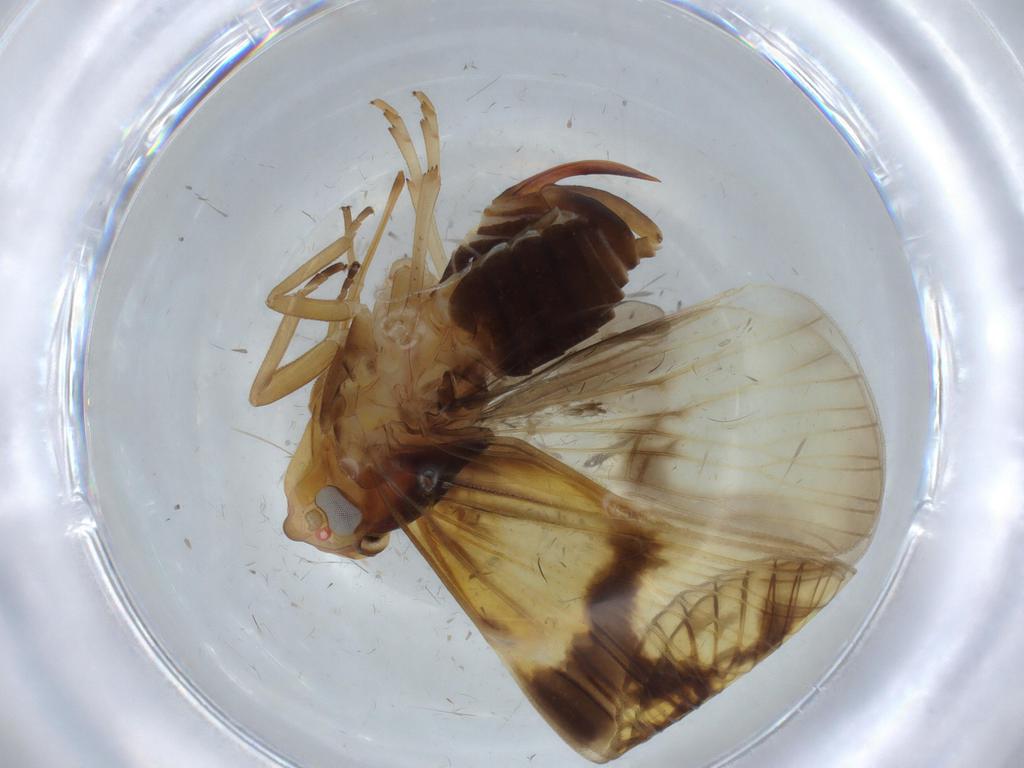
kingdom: Animalia
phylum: Arthropoda
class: Insecta
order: Hemiptera
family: Cixiidae
